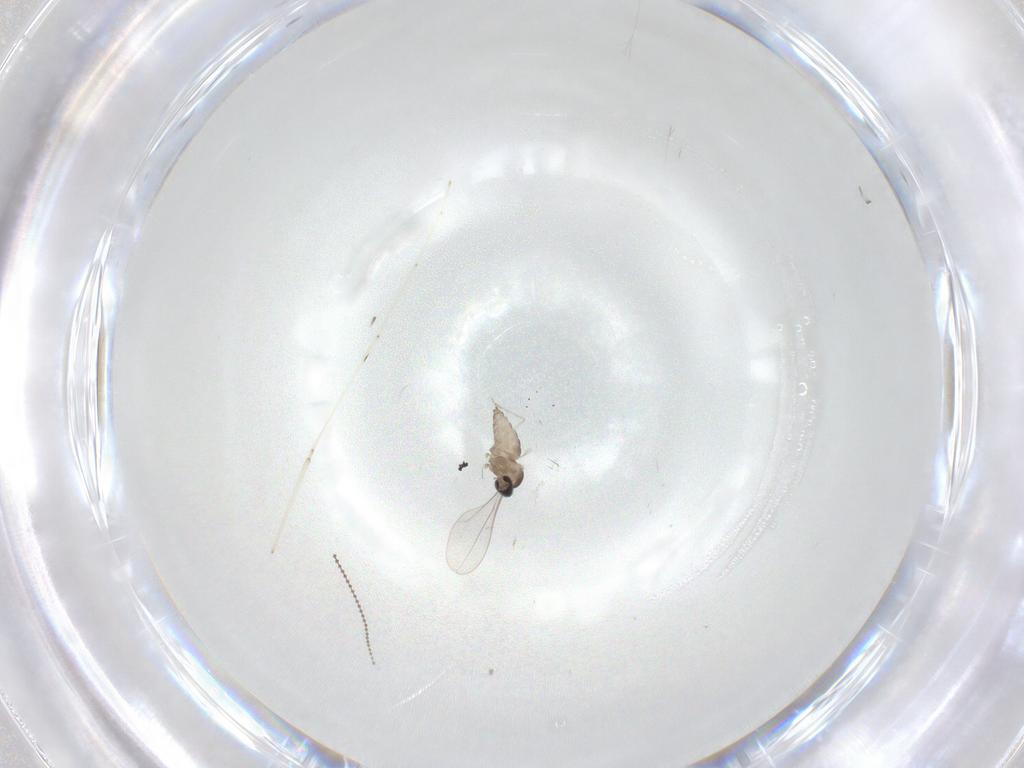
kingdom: Animalia
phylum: Arthropoda
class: Insecta
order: Diptera
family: Cecidomyiidae
